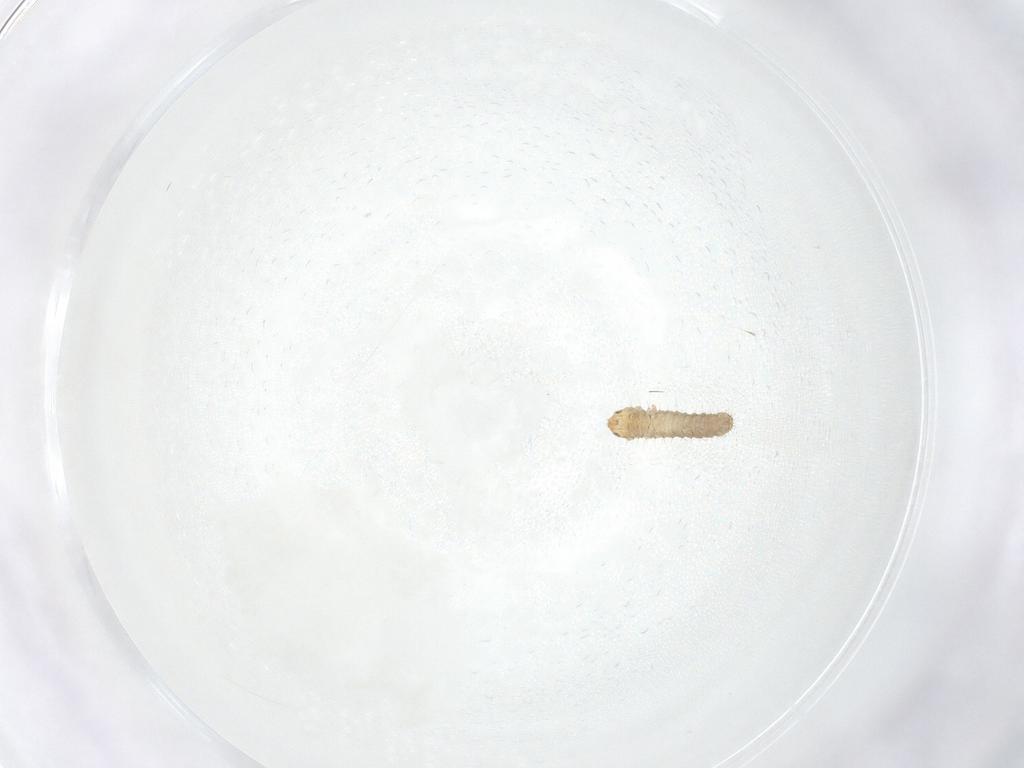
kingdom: Animalia
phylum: Arthropoda
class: Insecta
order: Lepidoptera
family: Gelechiidae
